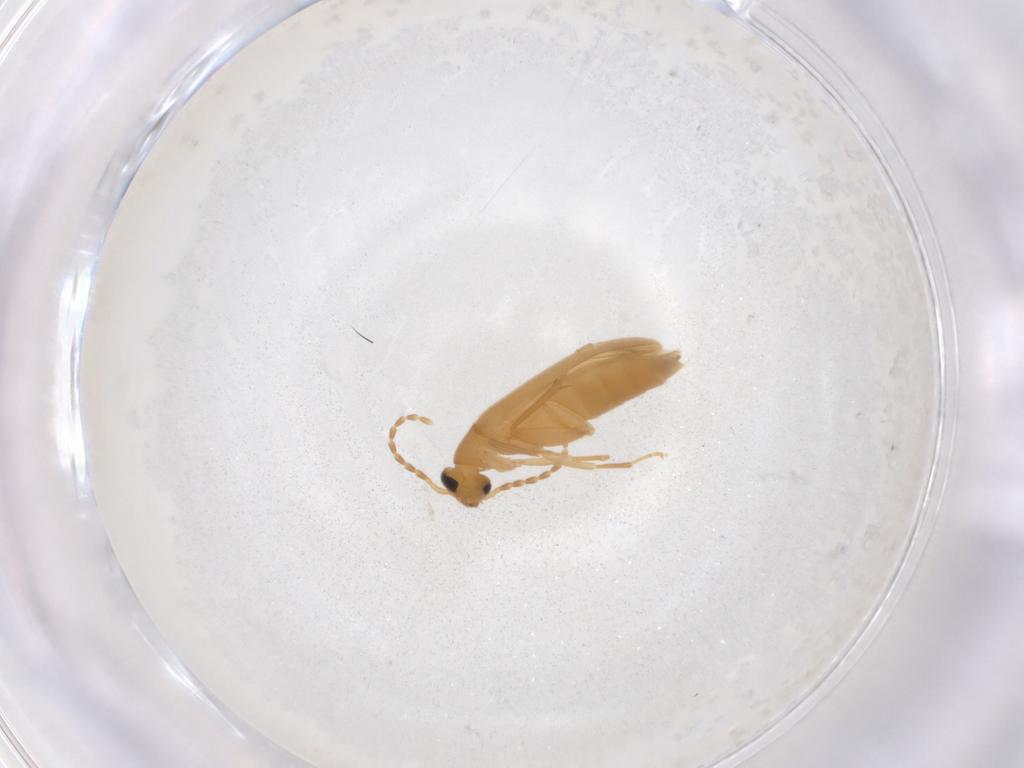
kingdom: Animalia
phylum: Arthropoda
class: Insecta
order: Coleoptera
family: Scraptiidae
